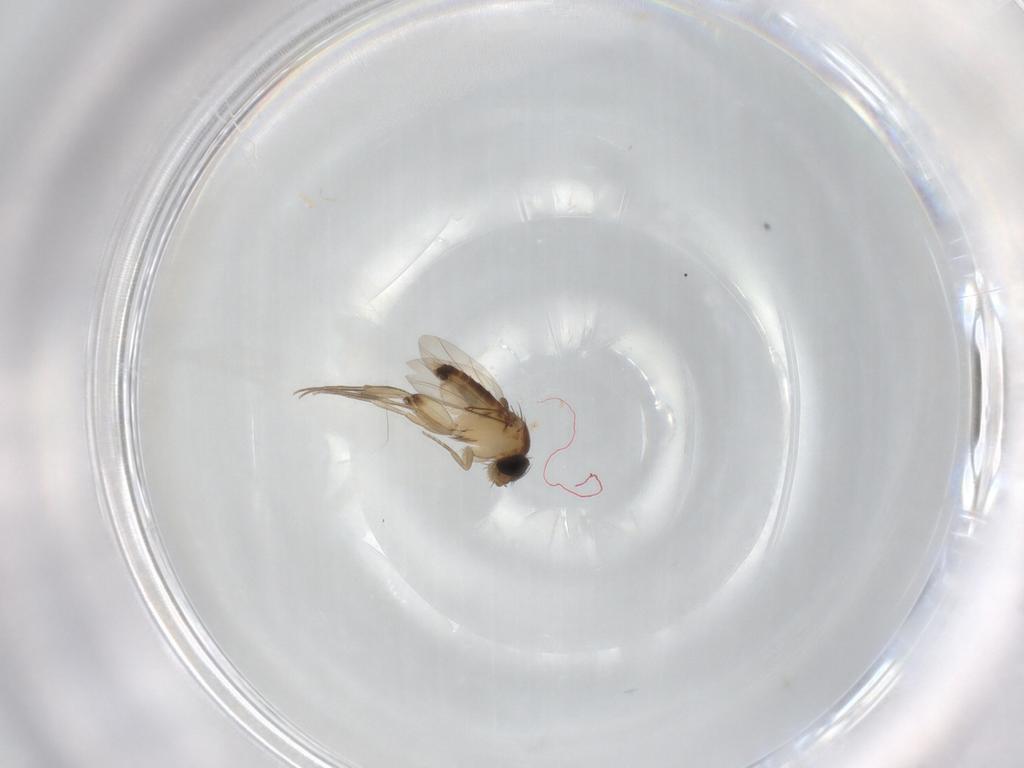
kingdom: Animalia
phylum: Arthropoda
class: Insecta
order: Diptera
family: Phoridae
